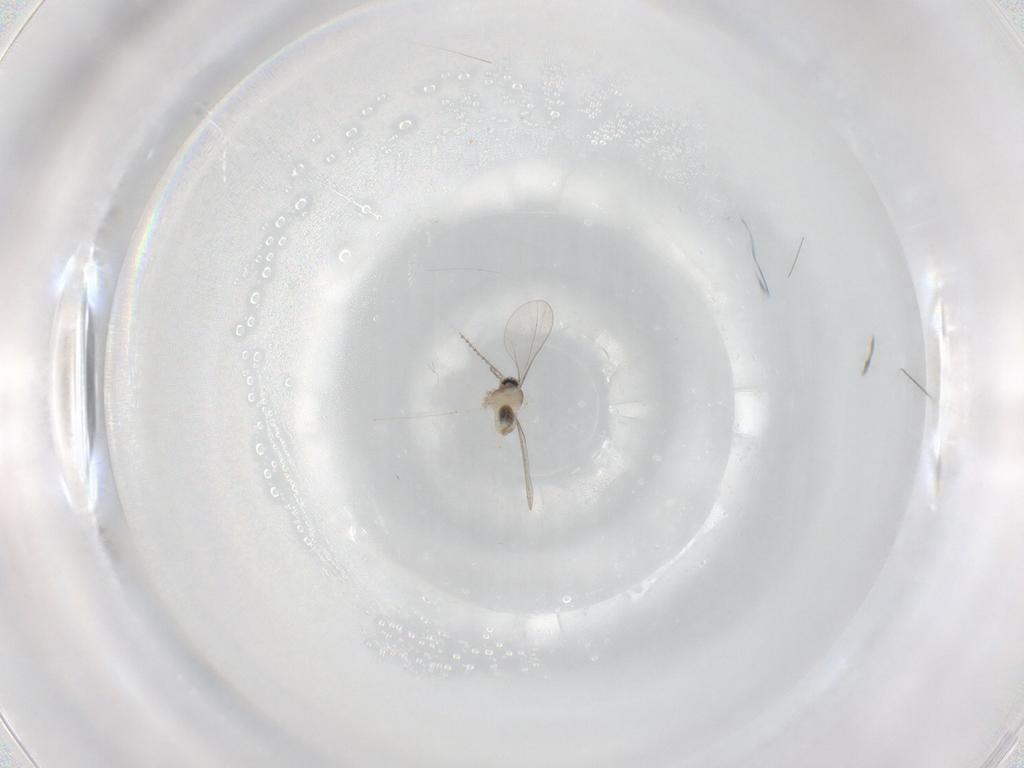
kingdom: Animalia
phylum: Arthropoda
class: Insecta
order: Diptera
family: Cecidomyiidae
